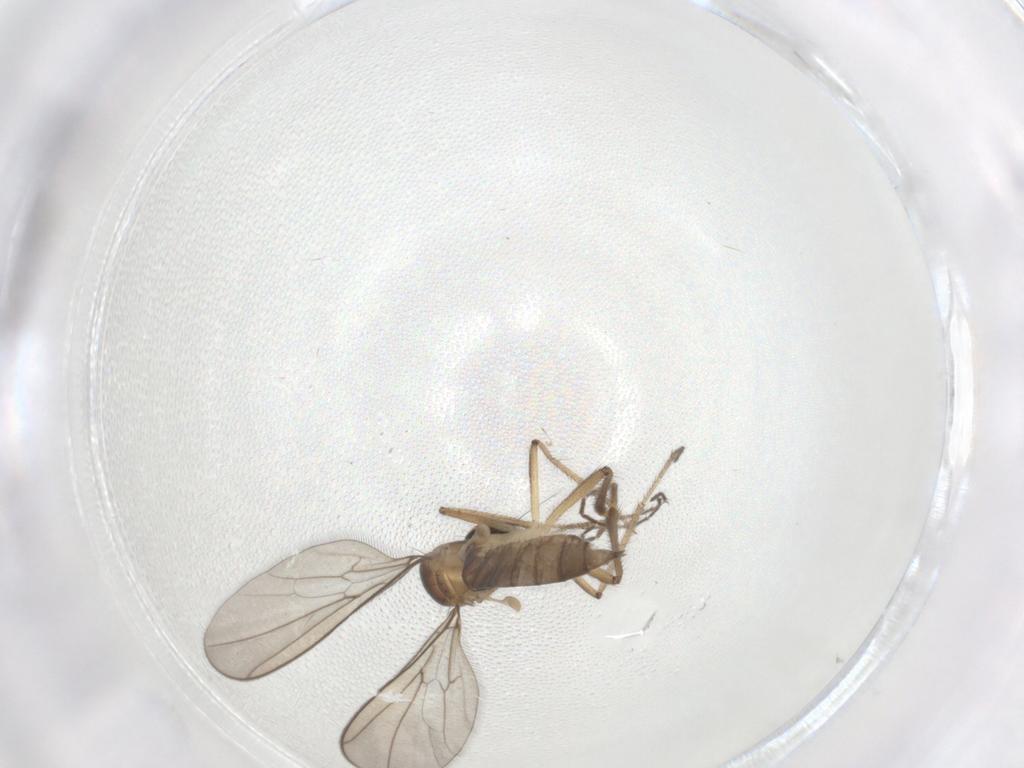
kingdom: Animalia
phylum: Arthropoda
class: Insecta
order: Diptera
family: Hybotidae
